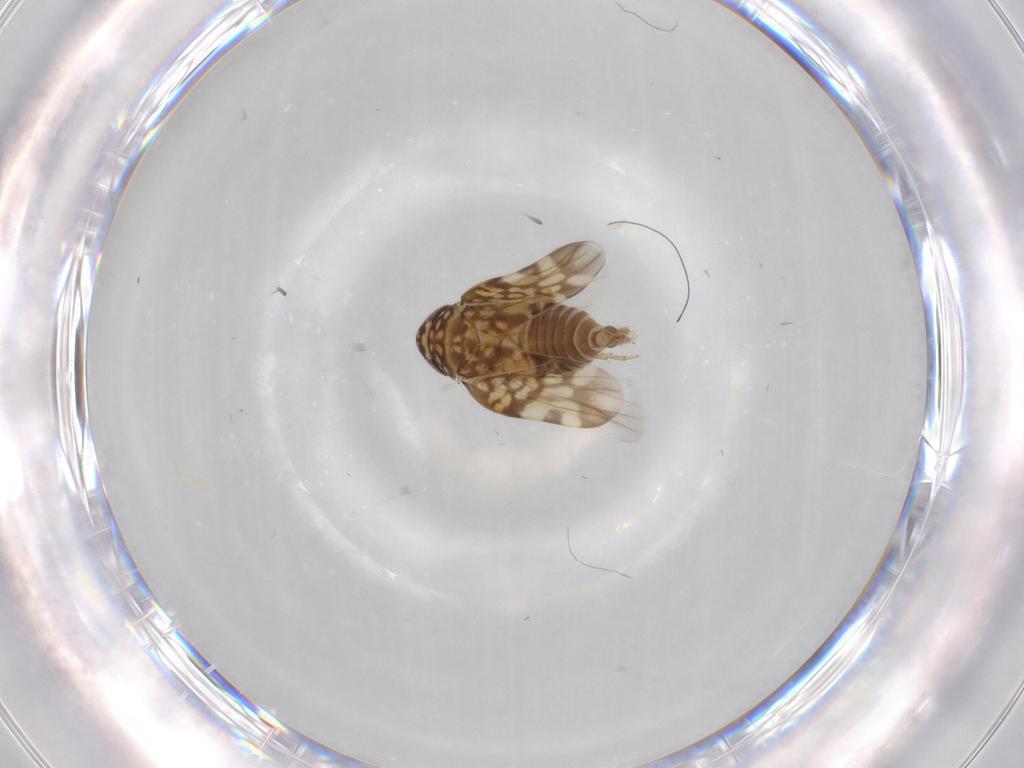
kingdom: Animalia
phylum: Arthropoda
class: Insecta
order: Hemiptera
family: Cicadellidae
